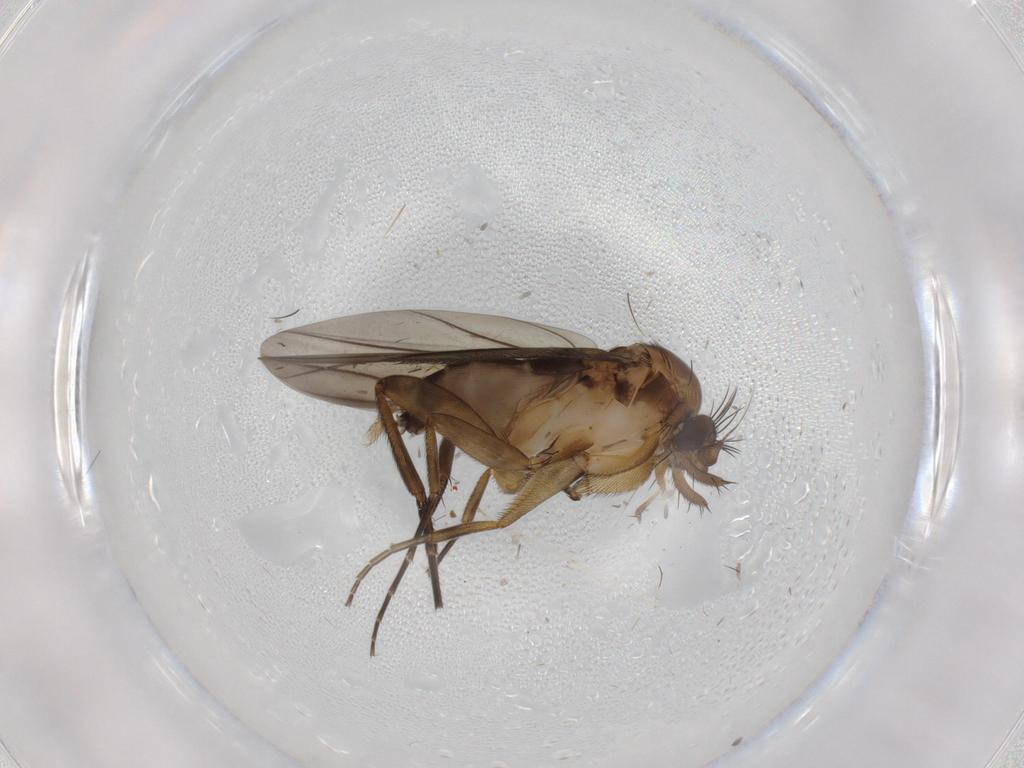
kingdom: Animalia
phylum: Arthropoda
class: Insecta
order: Diptera
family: Phoridae
